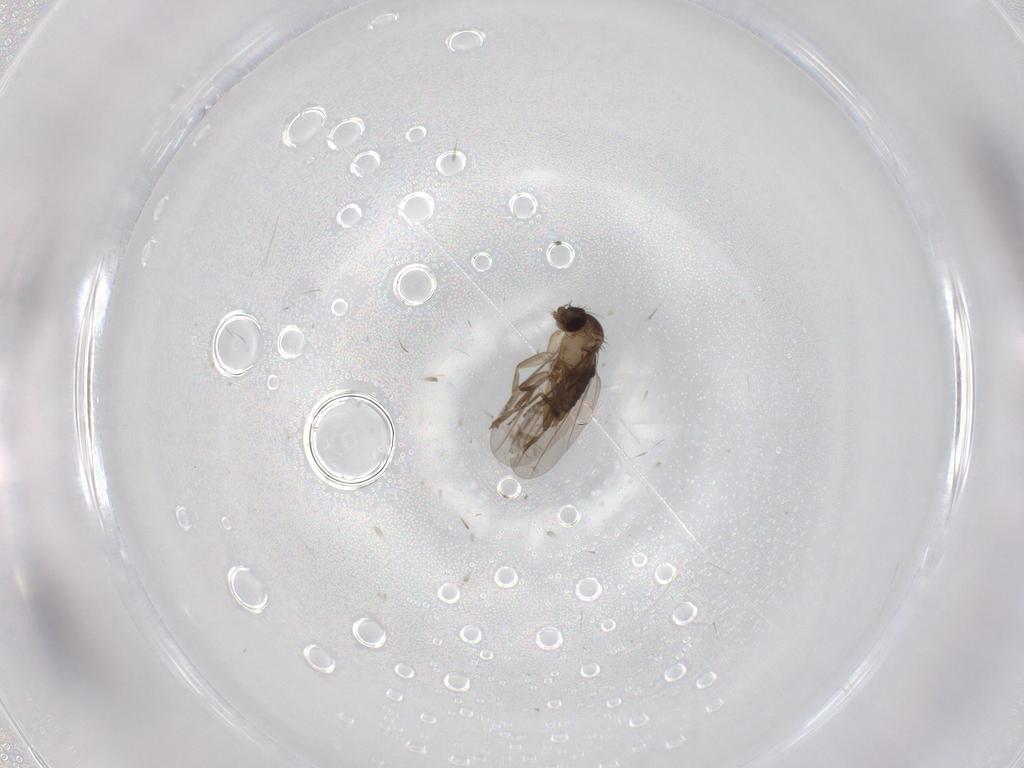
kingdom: Animalia
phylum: Arthropoda
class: Insecta
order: Diptera
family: Phoridae
